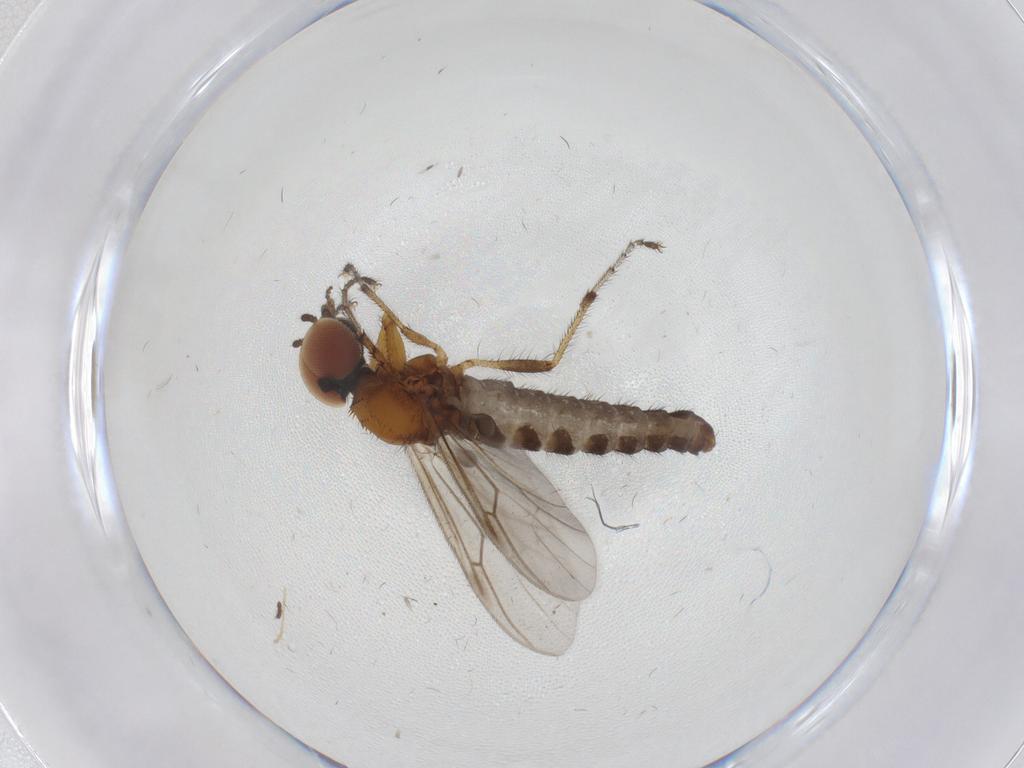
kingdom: Animalia
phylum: Arthropoda
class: Insecta
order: Diptera
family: Bibionidae
